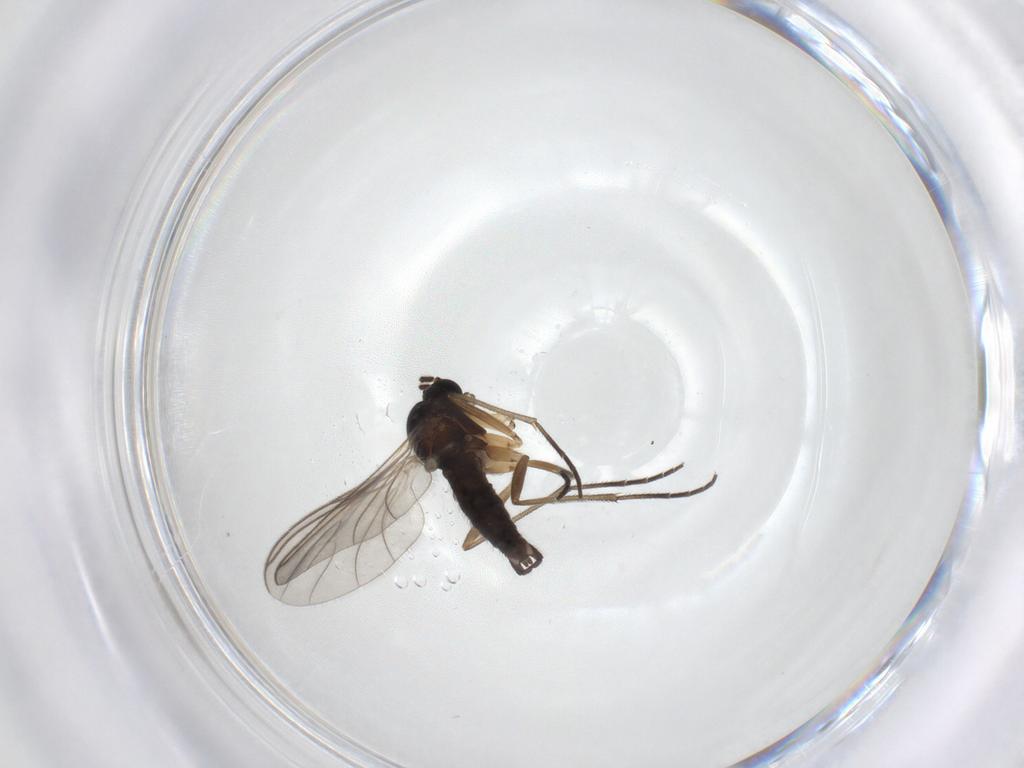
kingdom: Animalia
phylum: Arthropoda
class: Insecta
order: Diptera
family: Sciaridae
